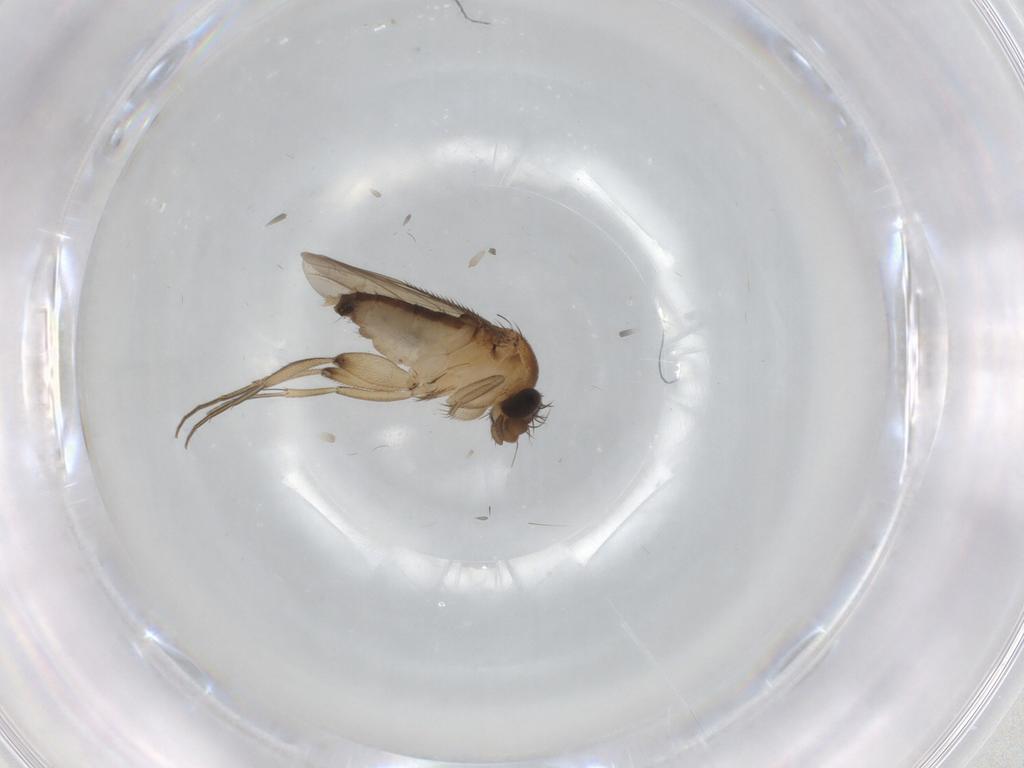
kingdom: Animalia
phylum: Arthropoda
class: Insecta
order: Diptera
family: Phoridae
